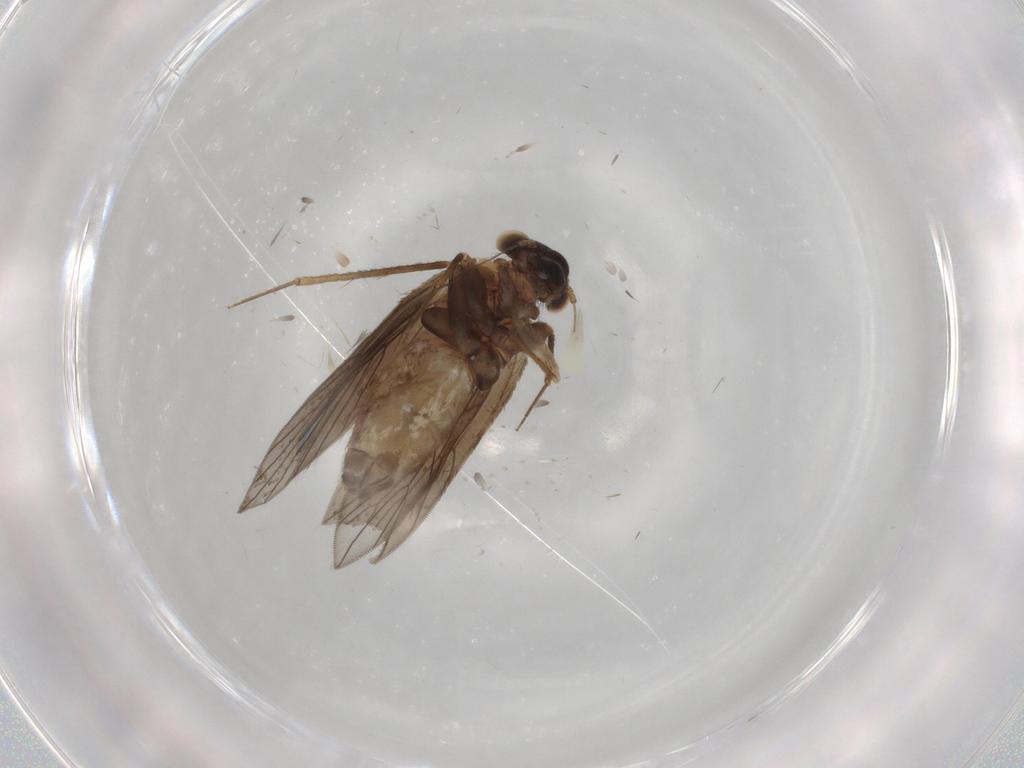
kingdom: Animalia
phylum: Arthropoda
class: Insecta
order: Psocodea
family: Lepidopsocidae
